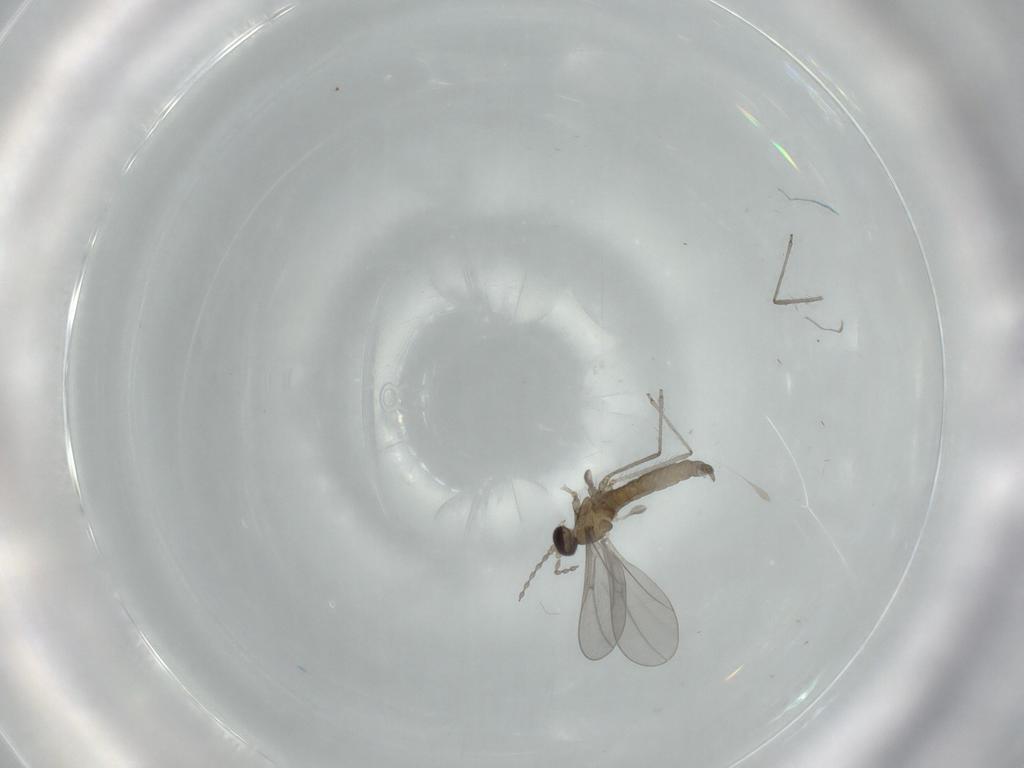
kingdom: Animalia
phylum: Arthropoda
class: Insecta
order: Diptera
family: Cecidomyiidae
